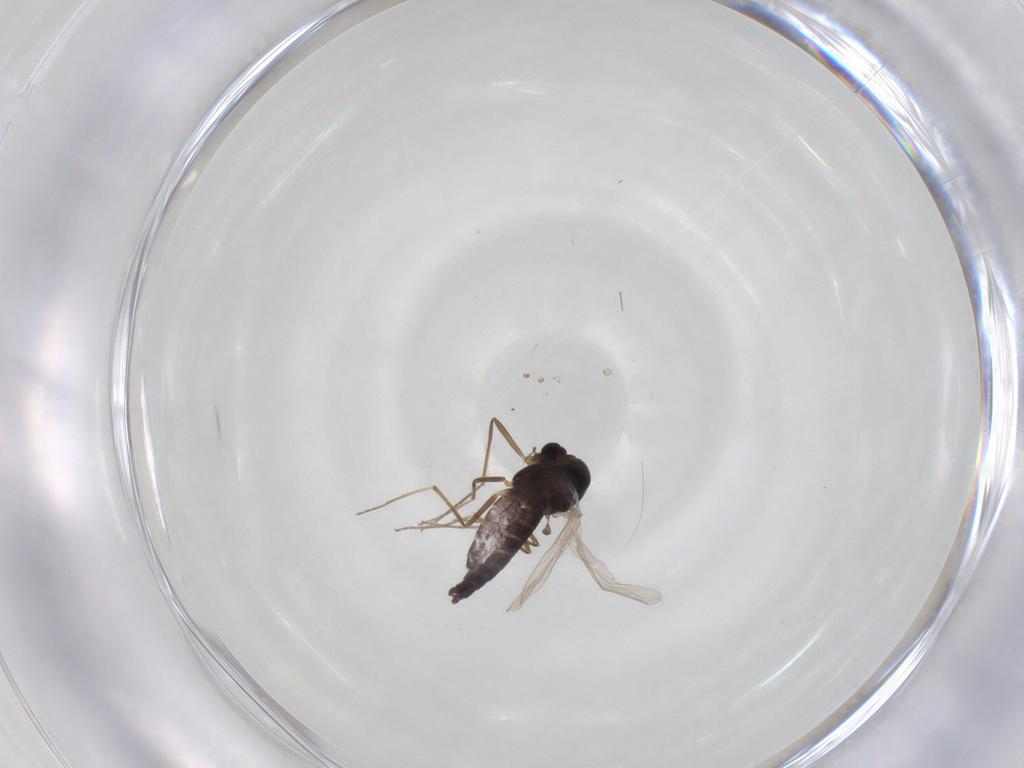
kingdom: Animalia
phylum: Arthropoda
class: Insecta
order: Diptera
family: Chironomidae
